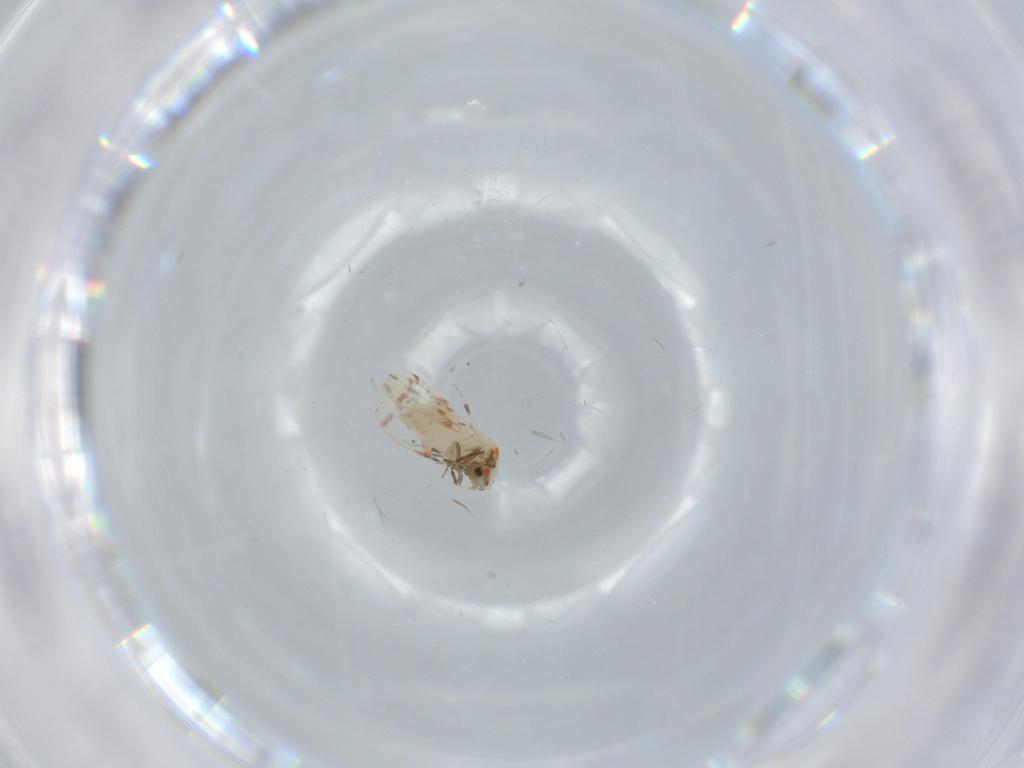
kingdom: Animalia
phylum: Arthropoda
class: Insecta
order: Hemiptera
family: Aleyrodidae
